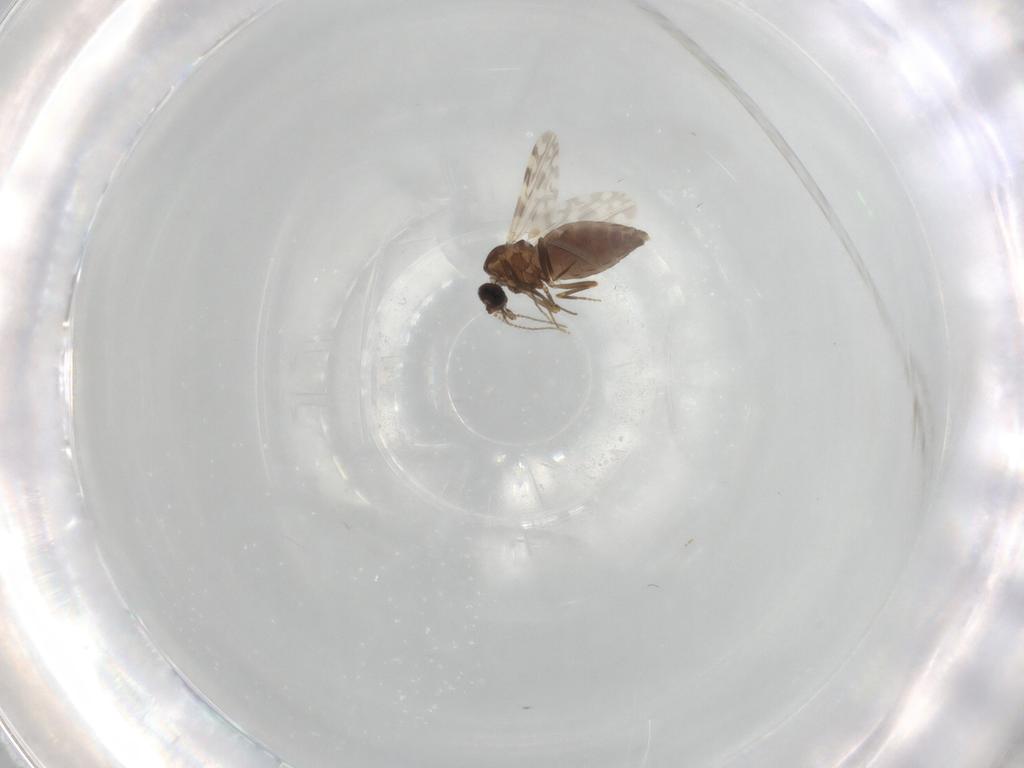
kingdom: Animalia
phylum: Arthropoda
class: Insecta
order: Diptera
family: Ceratopogonidae
